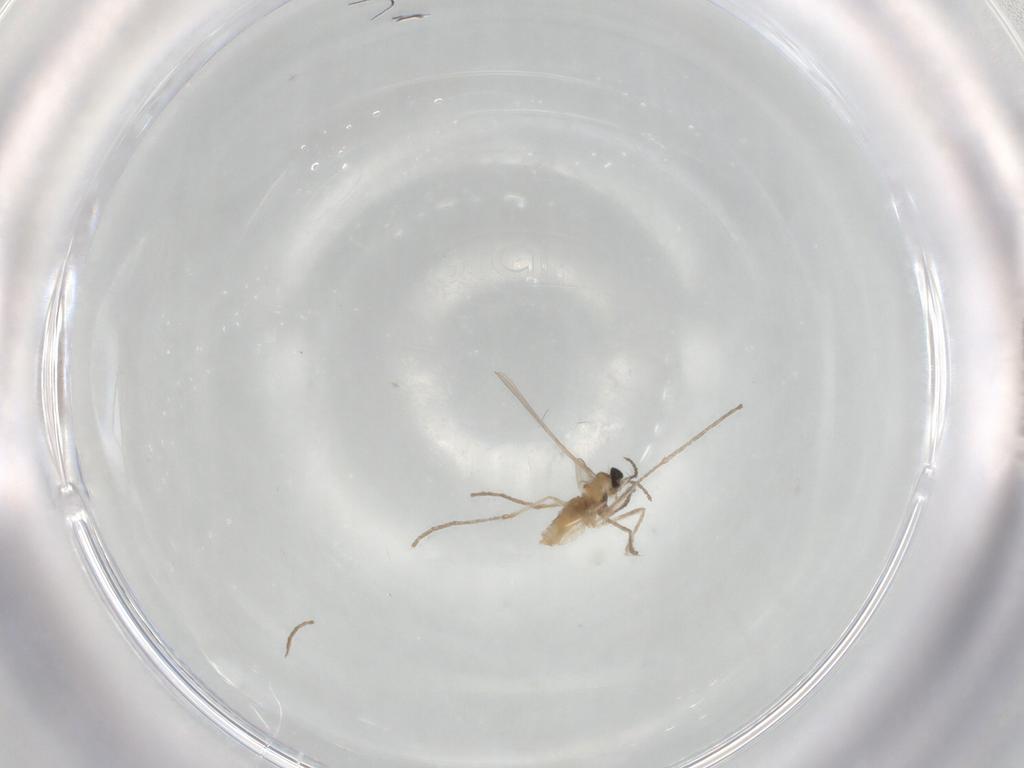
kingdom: Animalia
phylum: Arthropoda
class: Insecta
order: Diptera
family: Cecidomyiidae
